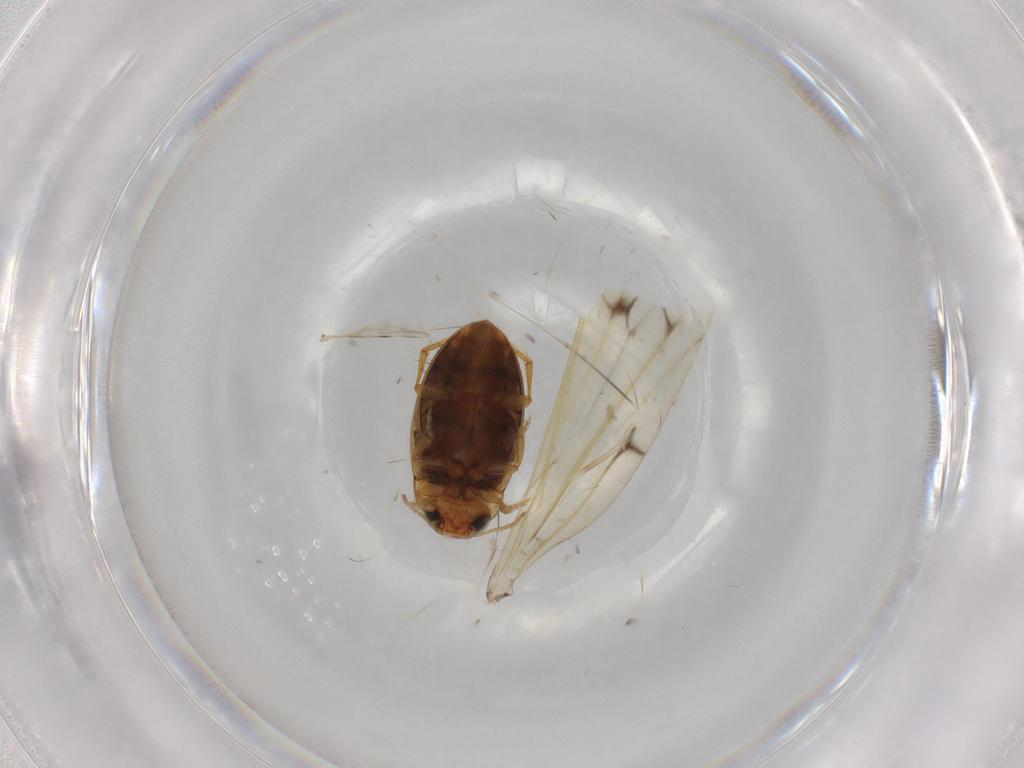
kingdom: Animalia
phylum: Arthropoda
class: Insecta
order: Coleoptera
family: Dytiscidae
